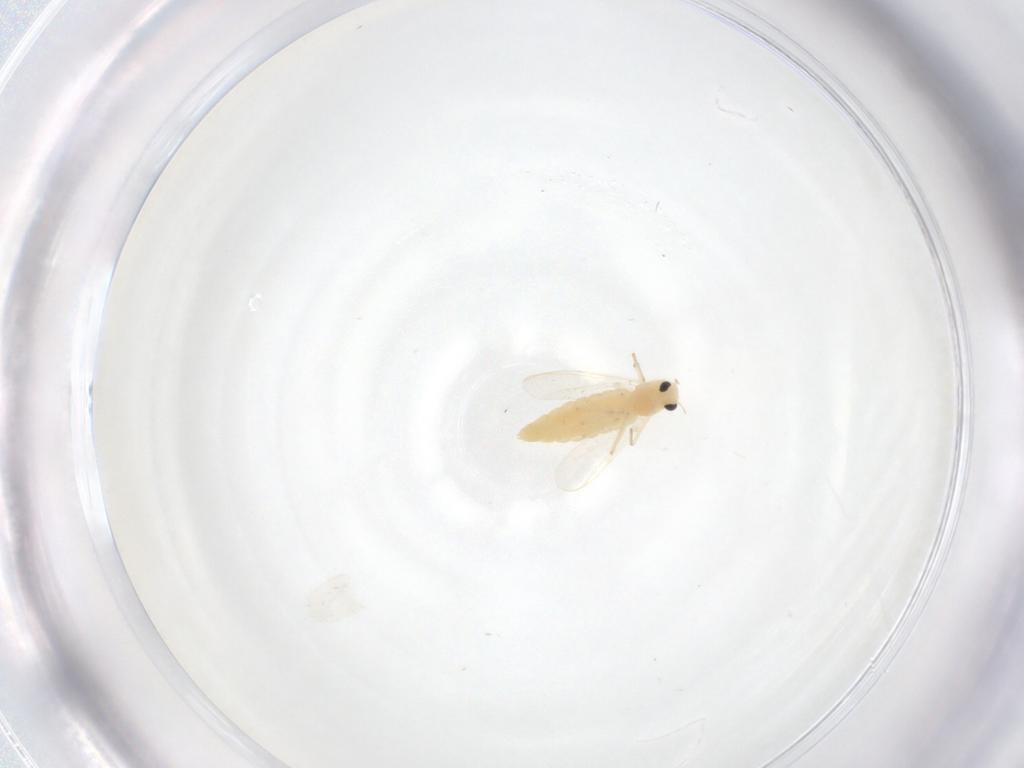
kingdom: Animalia
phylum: Arthropoda
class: Insecta
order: Diptera
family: Chironomidae
